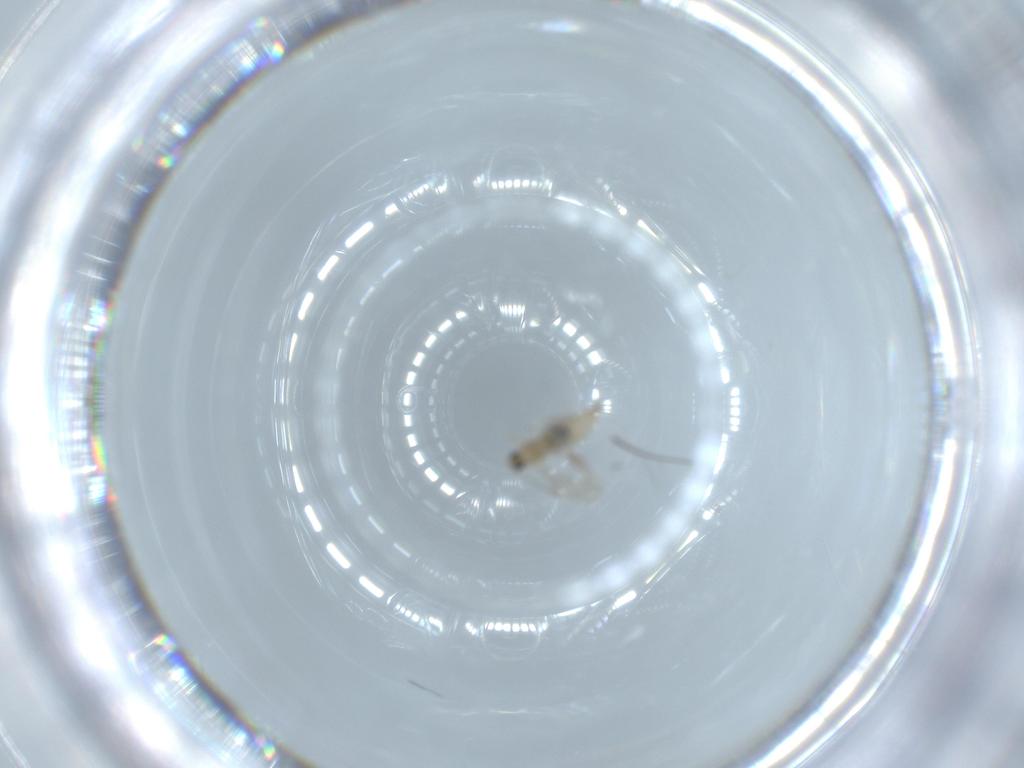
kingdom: Animalia
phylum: Arthropoda
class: Insecta
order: Diptera
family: Cecidomyiidae
